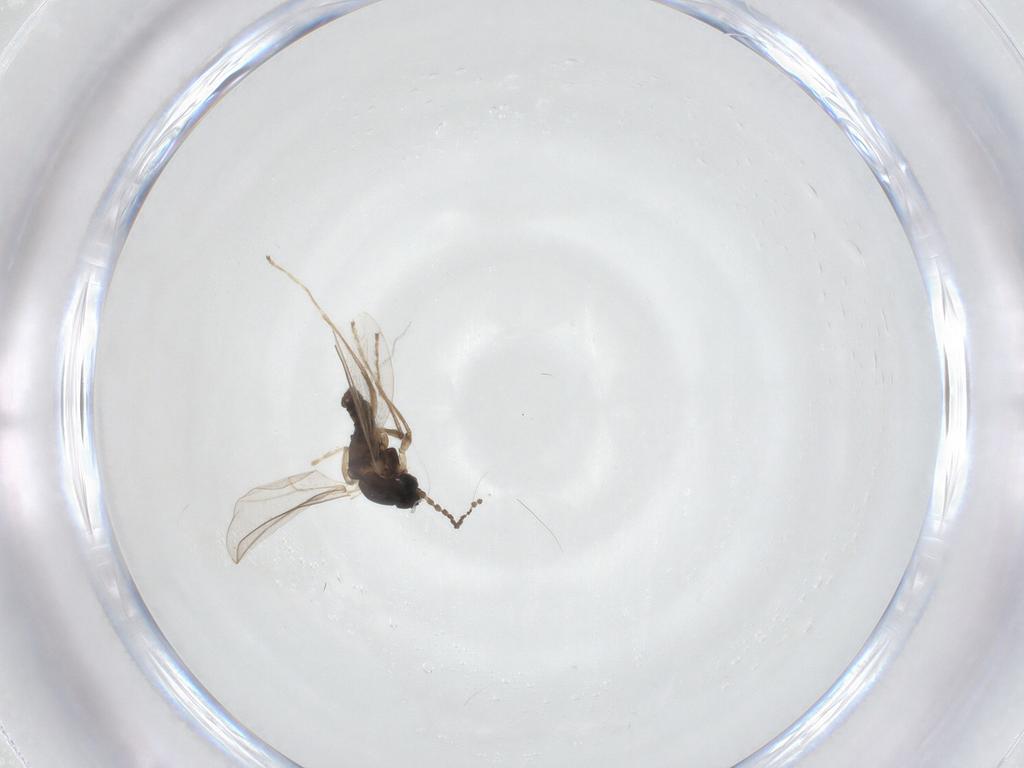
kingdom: Animalia
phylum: Arthropoda
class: Insecta
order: Diptera
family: Cecidomyiidae
